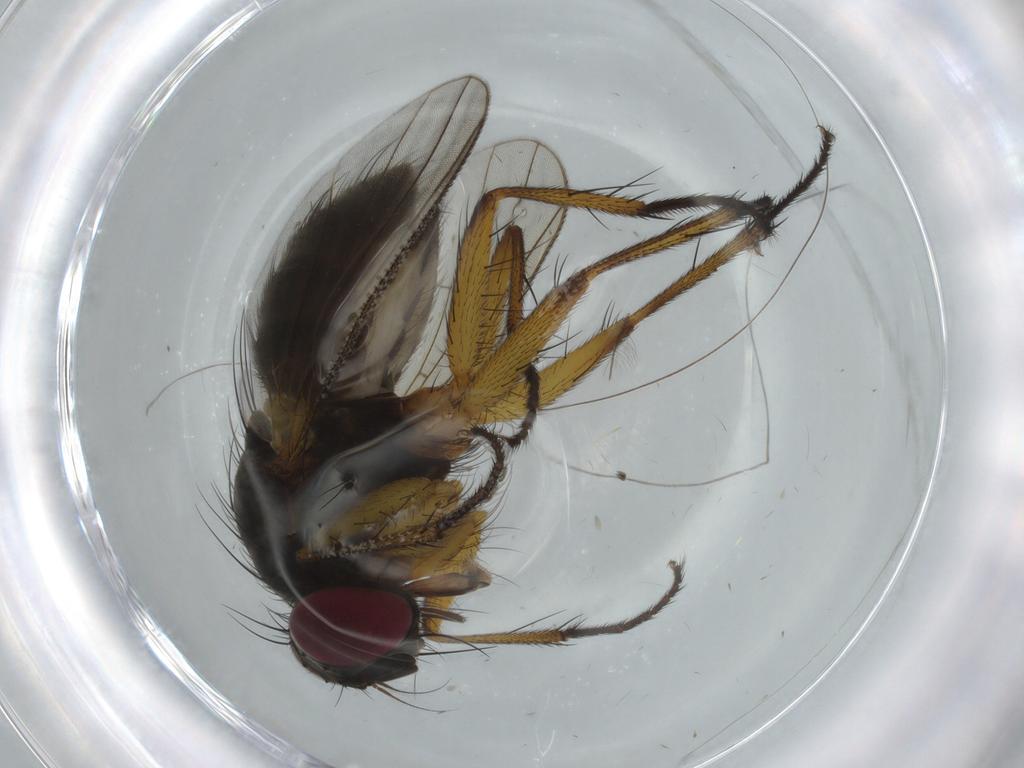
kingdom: Animalia
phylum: Arthropoda
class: Insecta
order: Diptera
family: Muscidae
